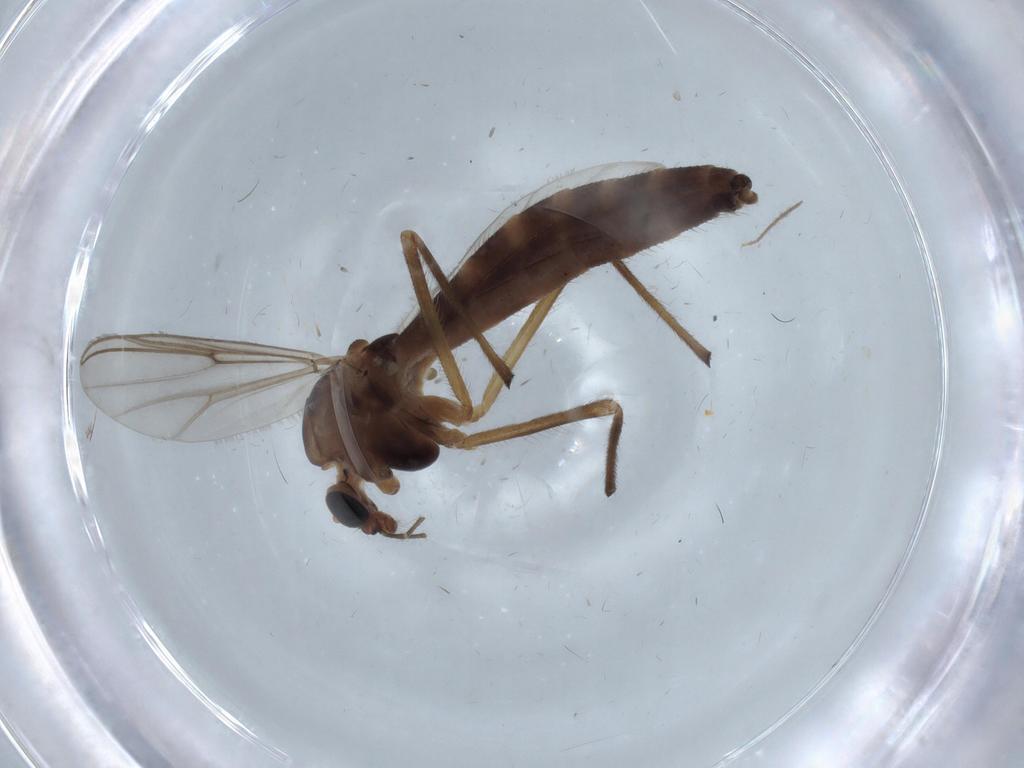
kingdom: Animalia
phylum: Arthropoda
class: Insecta
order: Diptera
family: Chironomidae
